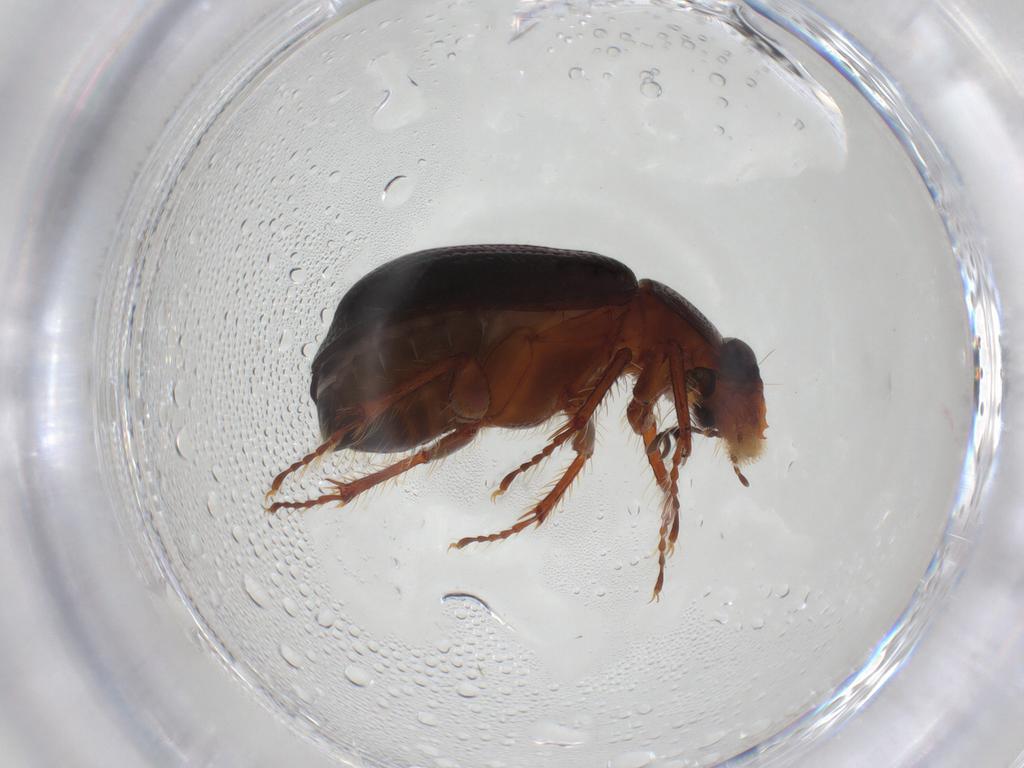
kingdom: Animalia
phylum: Arthropoda
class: Insecta
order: Coleoptera
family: Hybosoridae
